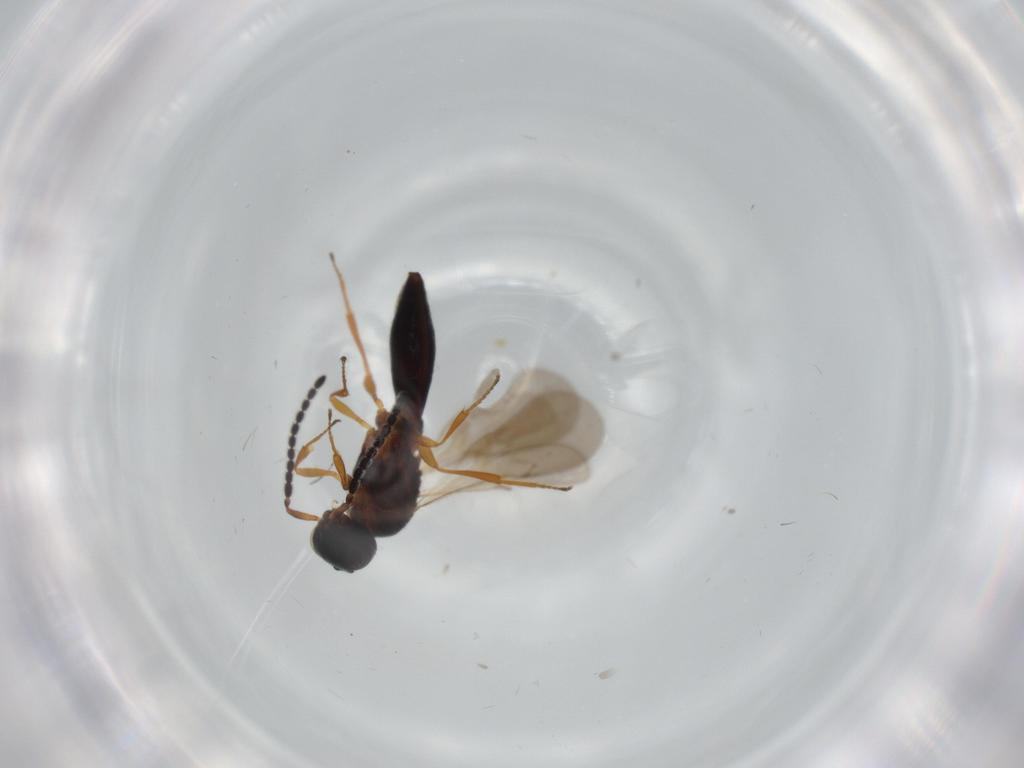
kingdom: Animalia
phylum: Arthropoda
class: Insecta
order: Hymenoptera
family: Scelionidae
